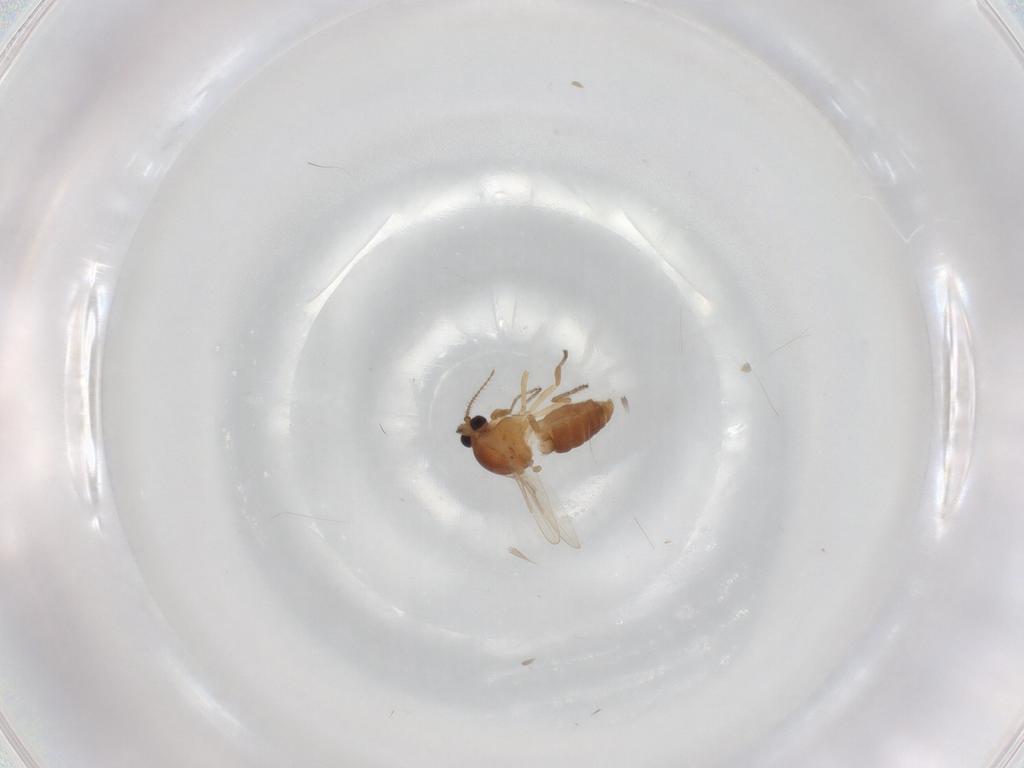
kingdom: Animalia
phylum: Arthropoda
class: Insecta
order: Diptera
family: Ceratopogonidae
